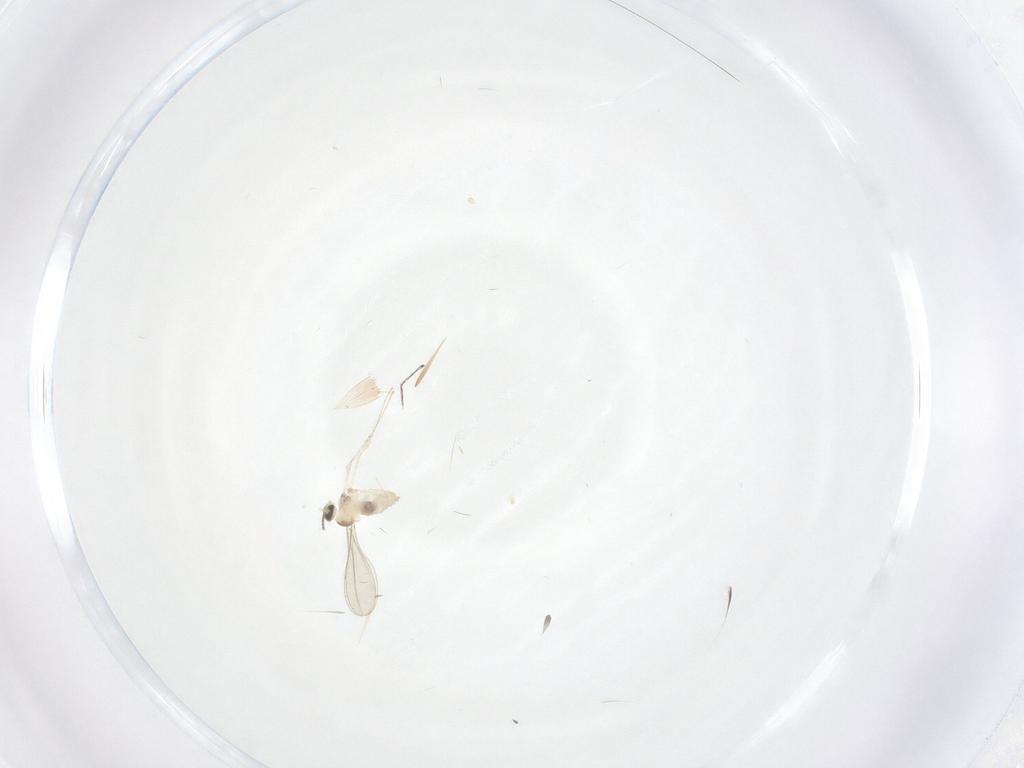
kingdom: Animalia
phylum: Arthropoda
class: Insecta
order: Diptera
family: Cecidomyiidae
